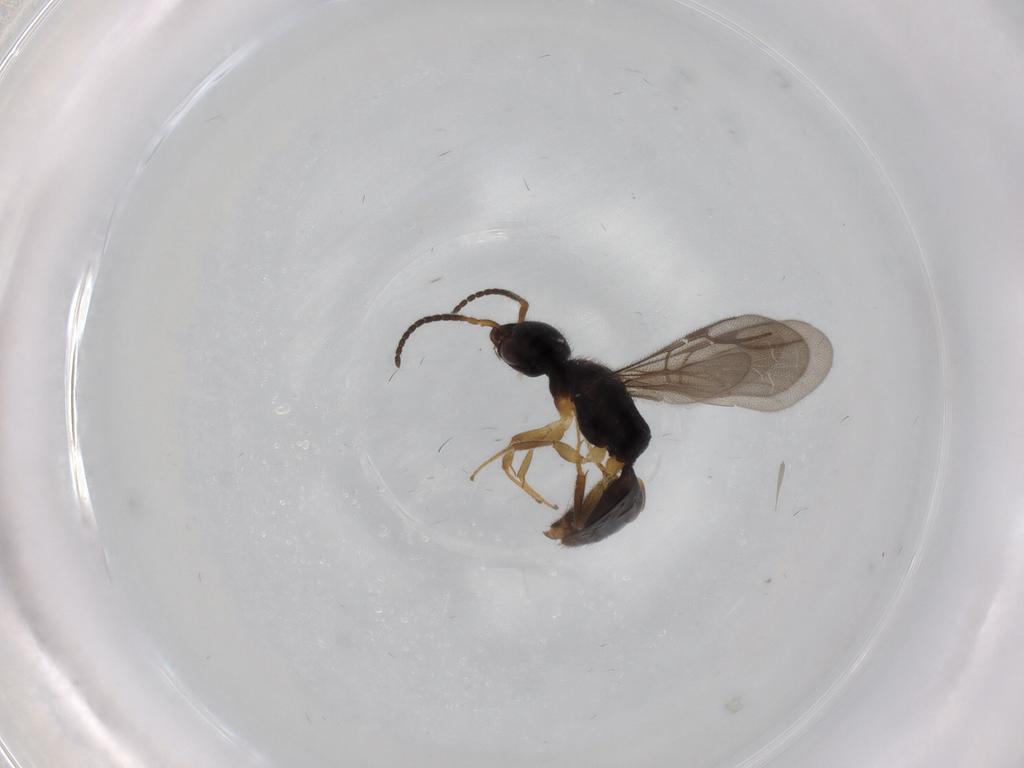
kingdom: Animalia
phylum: Arthropoda
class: Insecta
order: Hymenoptera
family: Bethylidae
